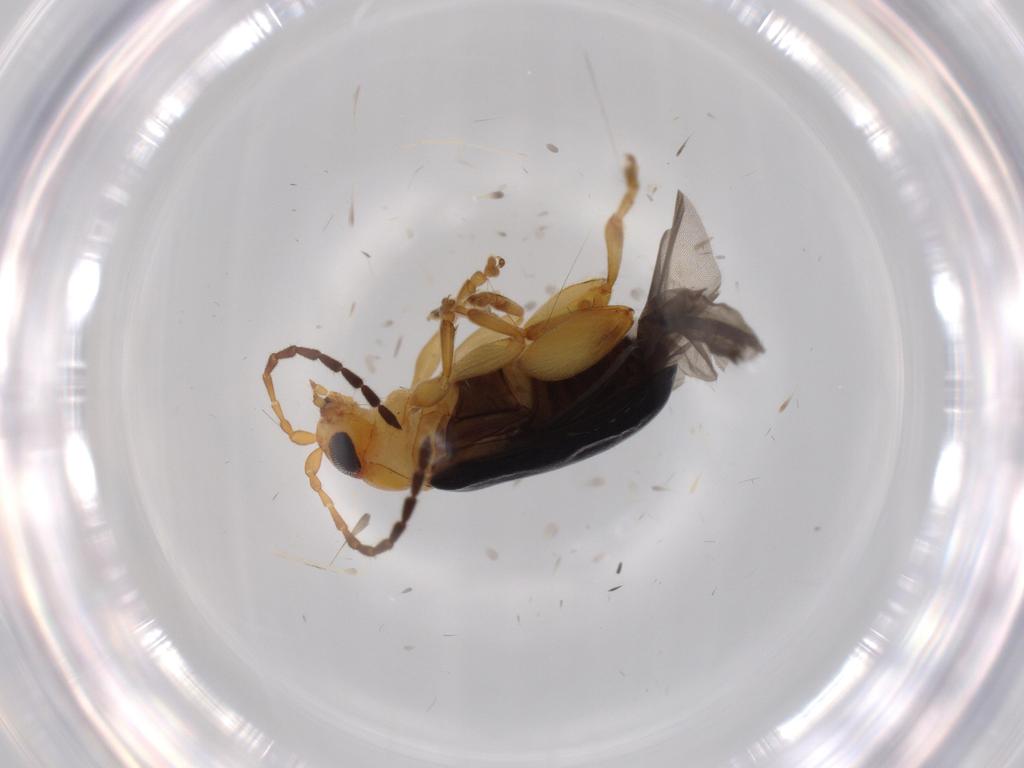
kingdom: Animalia
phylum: Arthropoda
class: Insecta
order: Coleoptera
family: Chrysomelidae
